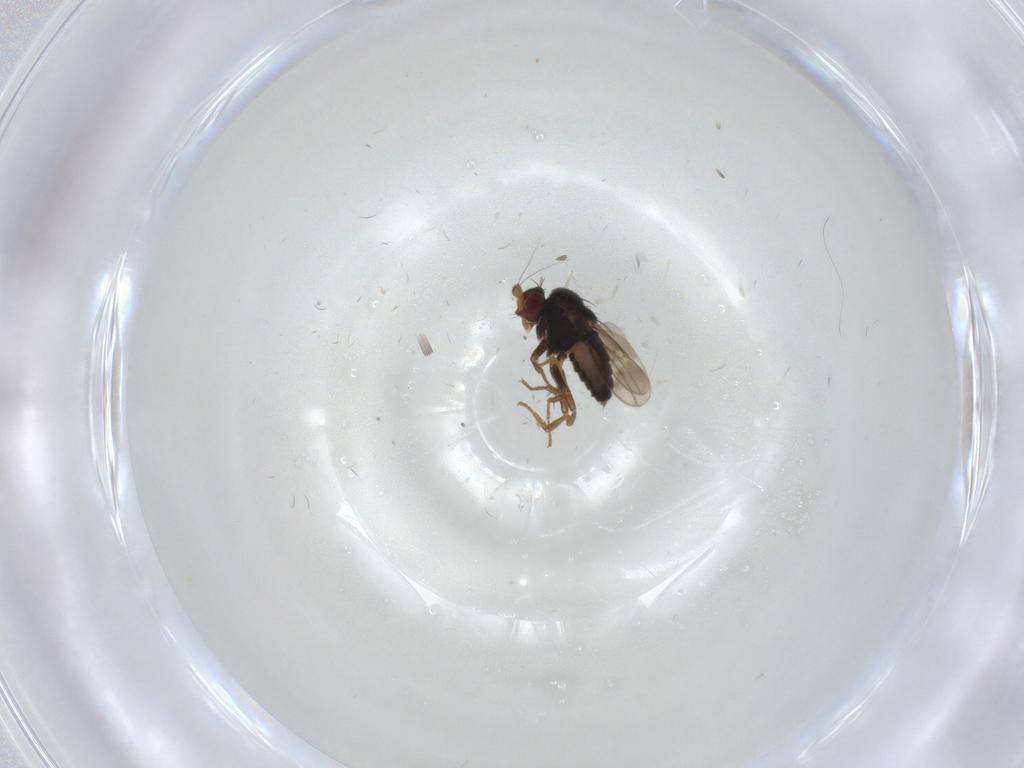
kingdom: Animalia
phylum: Arthropoda
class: Insecta
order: Diptera
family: Sphaeroceridae
